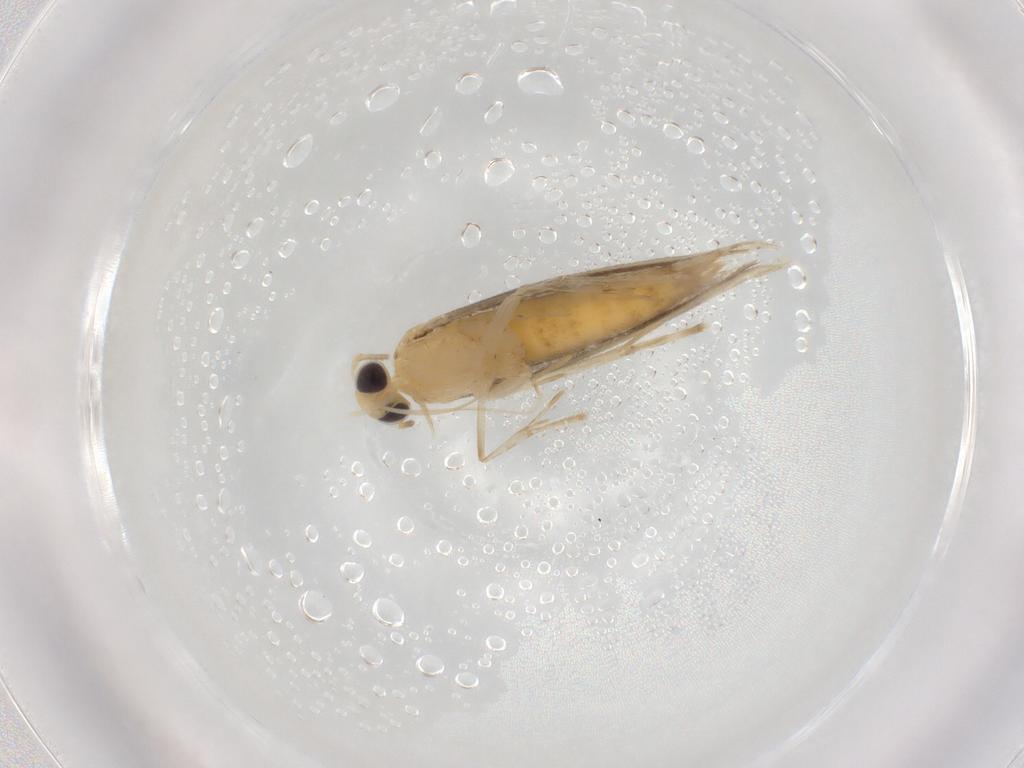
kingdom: Animalia
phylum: Arthropoda
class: Insecta
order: Lepidoptera
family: Argyresthiidae
